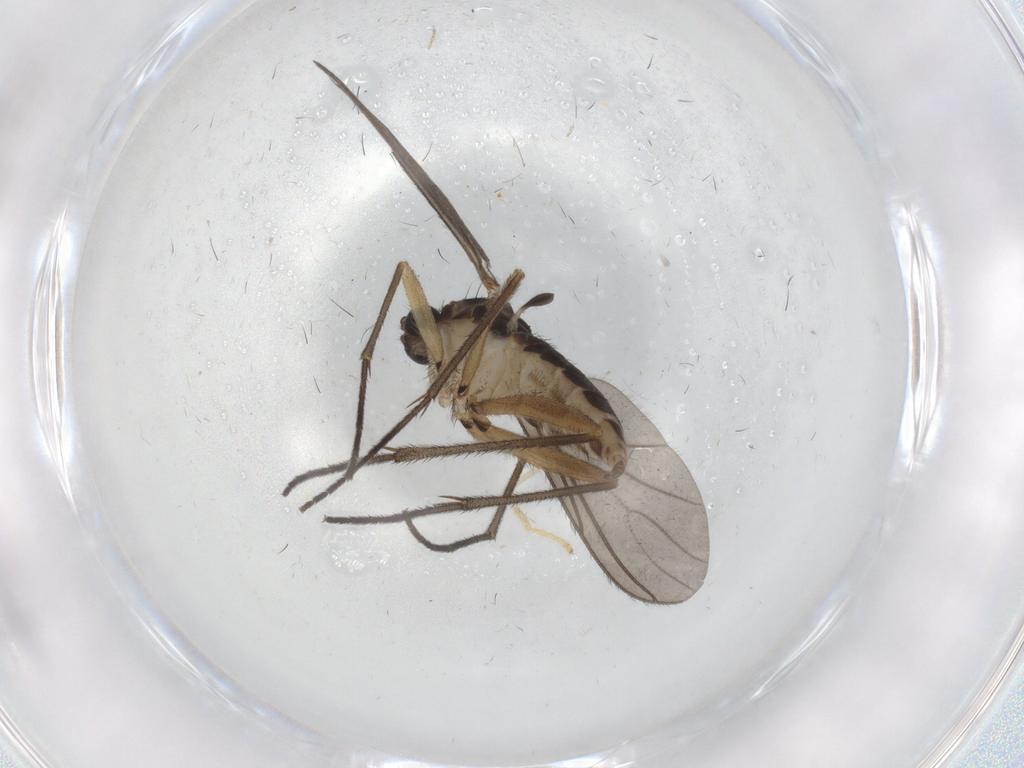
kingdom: Animalia
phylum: Arthropoda
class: Insecta
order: Diptera
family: Sciaridae
